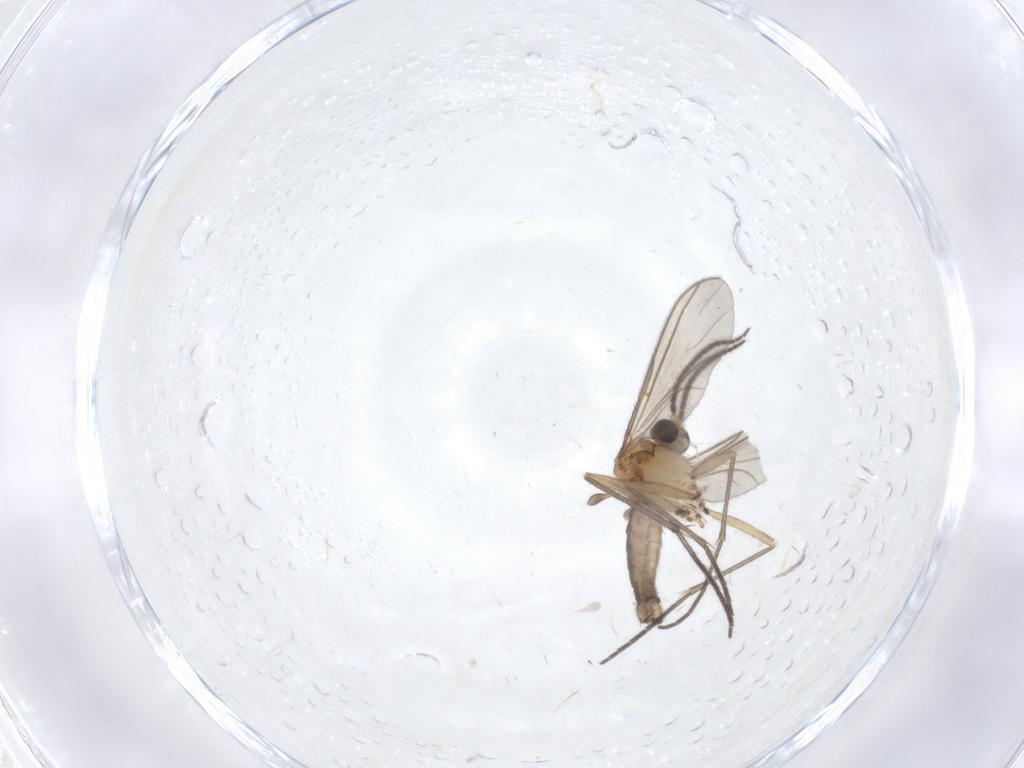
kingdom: Animalia
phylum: Arthropoda
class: Insecta
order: Diptera
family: Sciaridae
